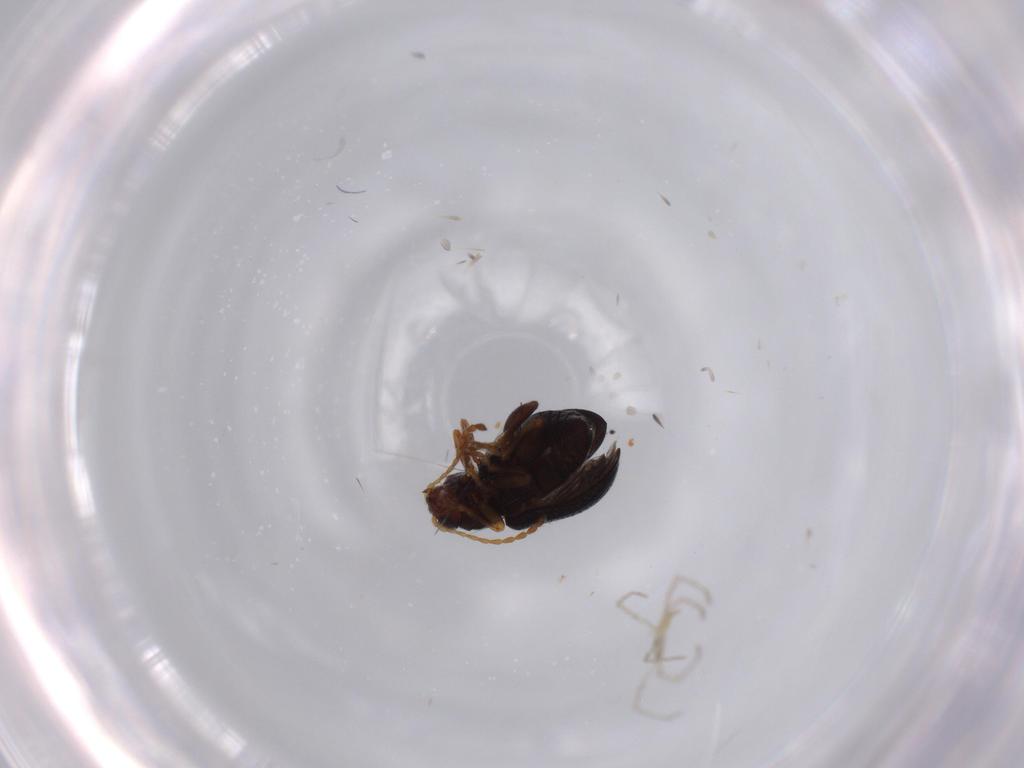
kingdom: Animalia
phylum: Arthropoda
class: Insecta
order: Coleoptera
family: Chrysomelidae
